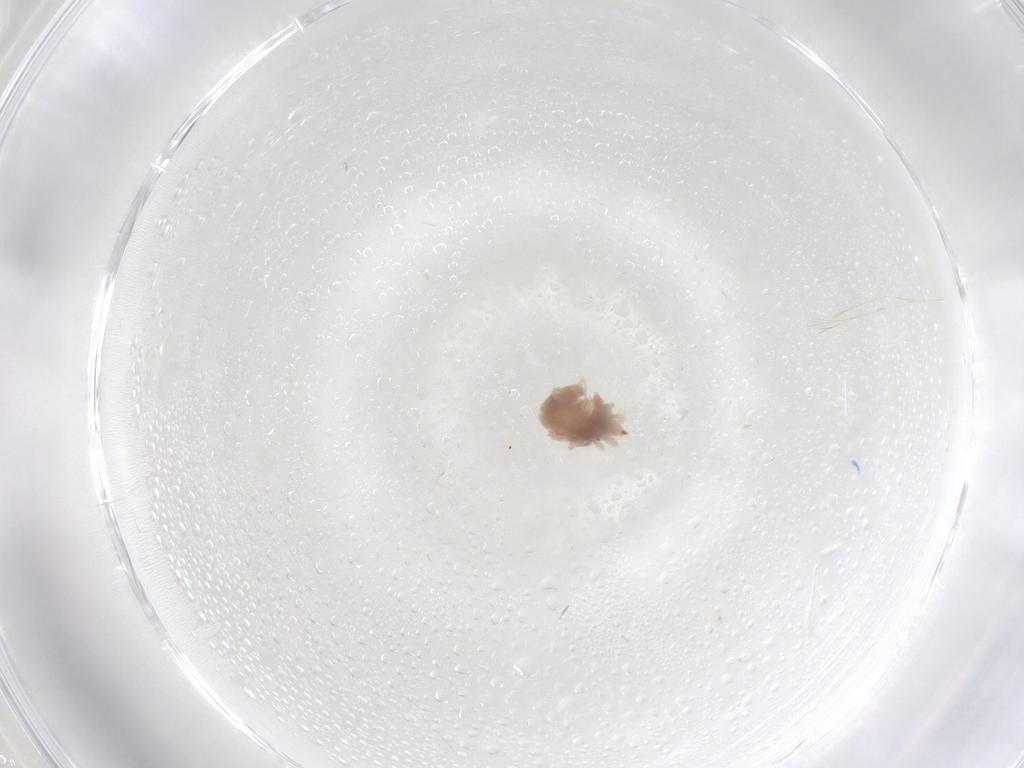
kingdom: Animalia
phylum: Arthropoda
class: Arachnida
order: Trombidiformes
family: Bdellidae
